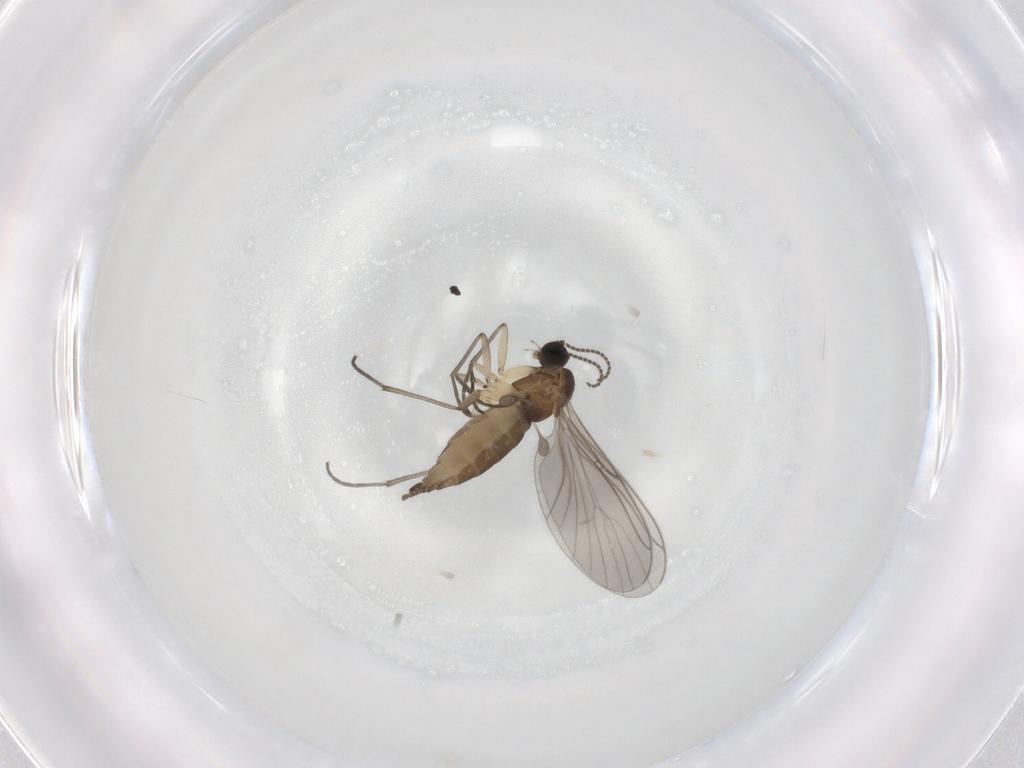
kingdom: Animalia
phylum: Arthropoda
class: Insecta
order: Diptera
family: Sciaridae
